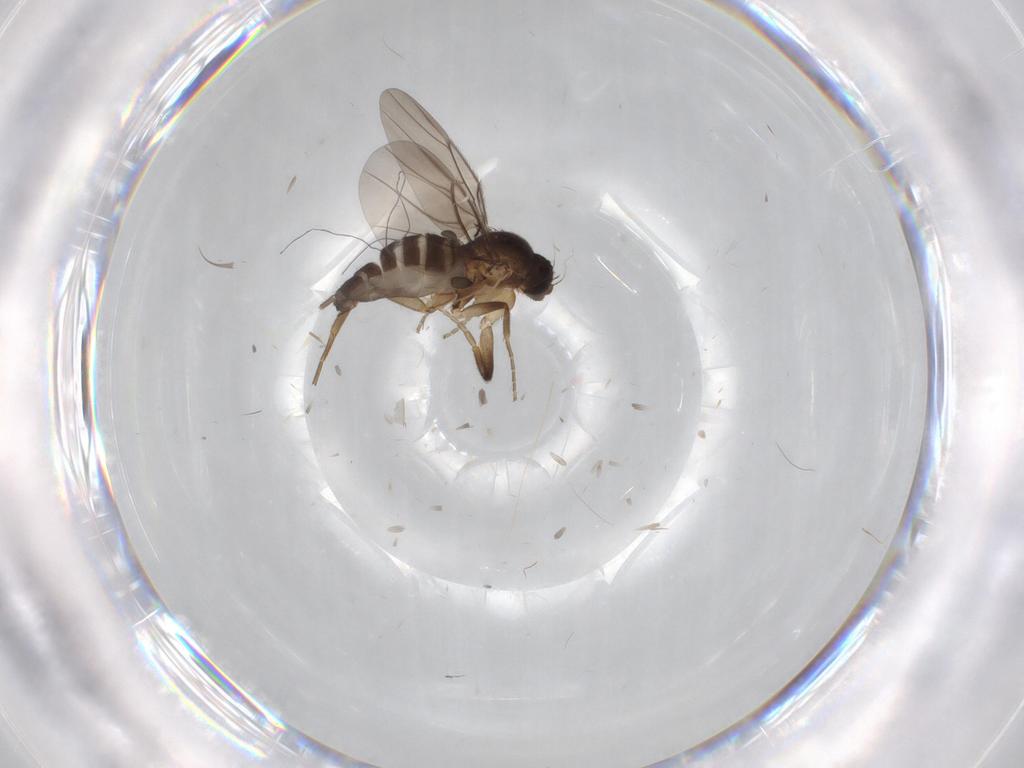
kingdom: Animalia
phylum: Arthropoda
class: Insecta
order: Diptera
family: Phoridae
